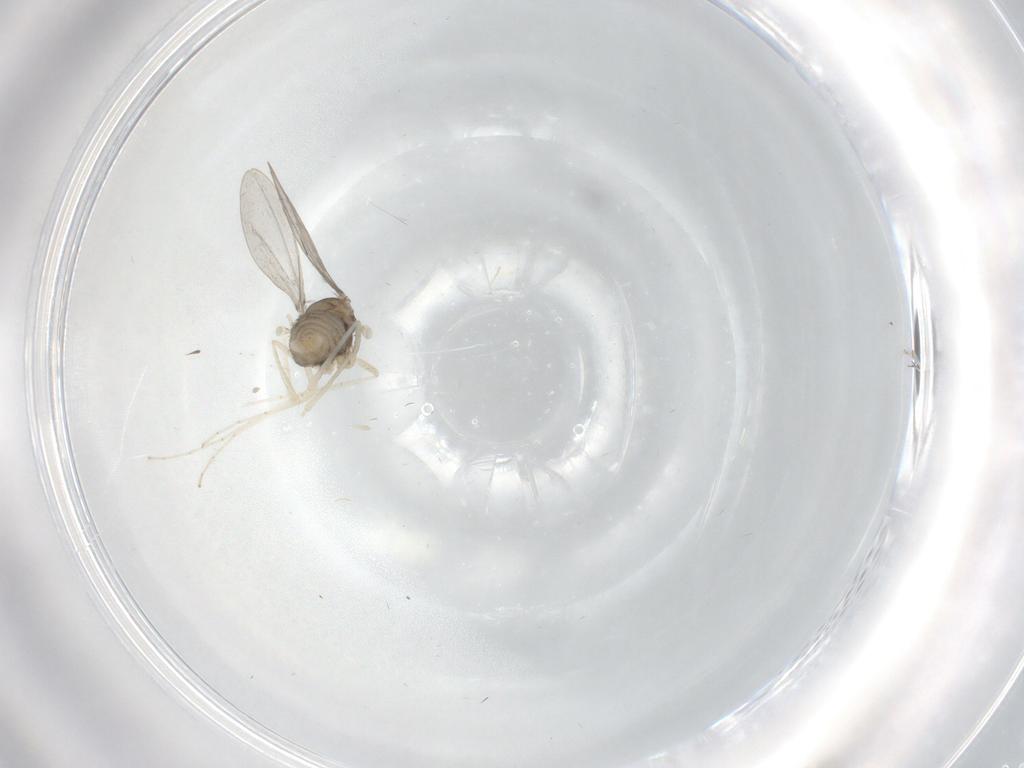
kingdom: Animalia
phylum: Arthropoda
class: Insecta
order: Diptera
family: Cecidomyiidae
